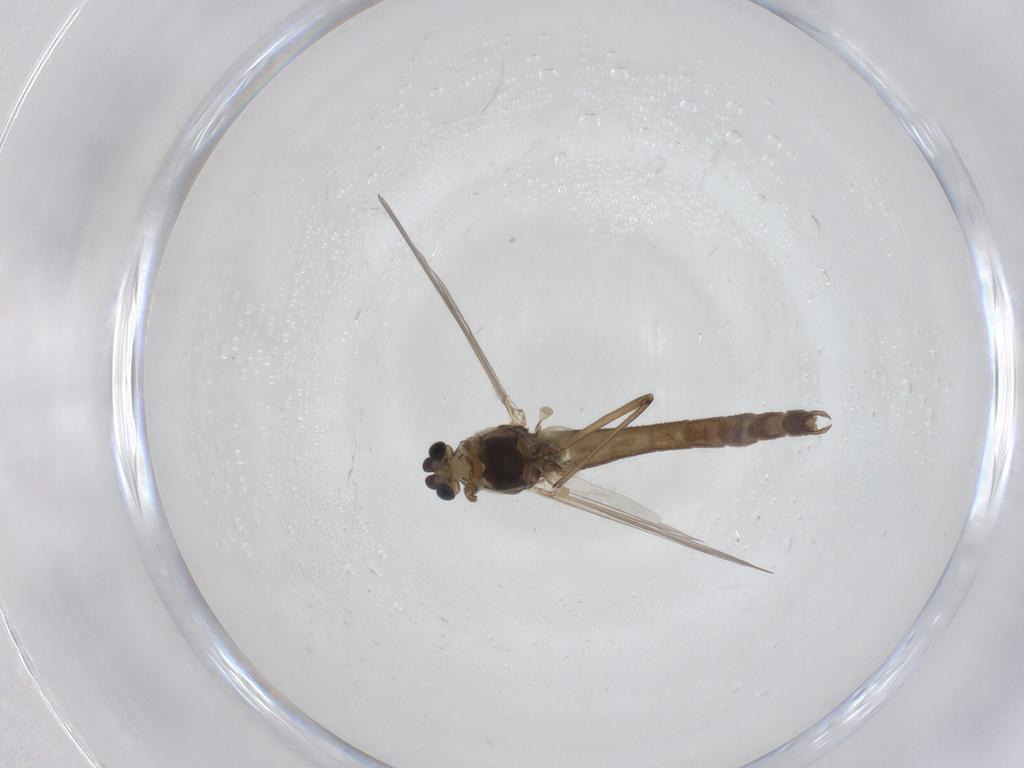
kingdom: Animalia
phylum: Arthropoda
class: Insecta
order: Diptera
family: Chironomidae
